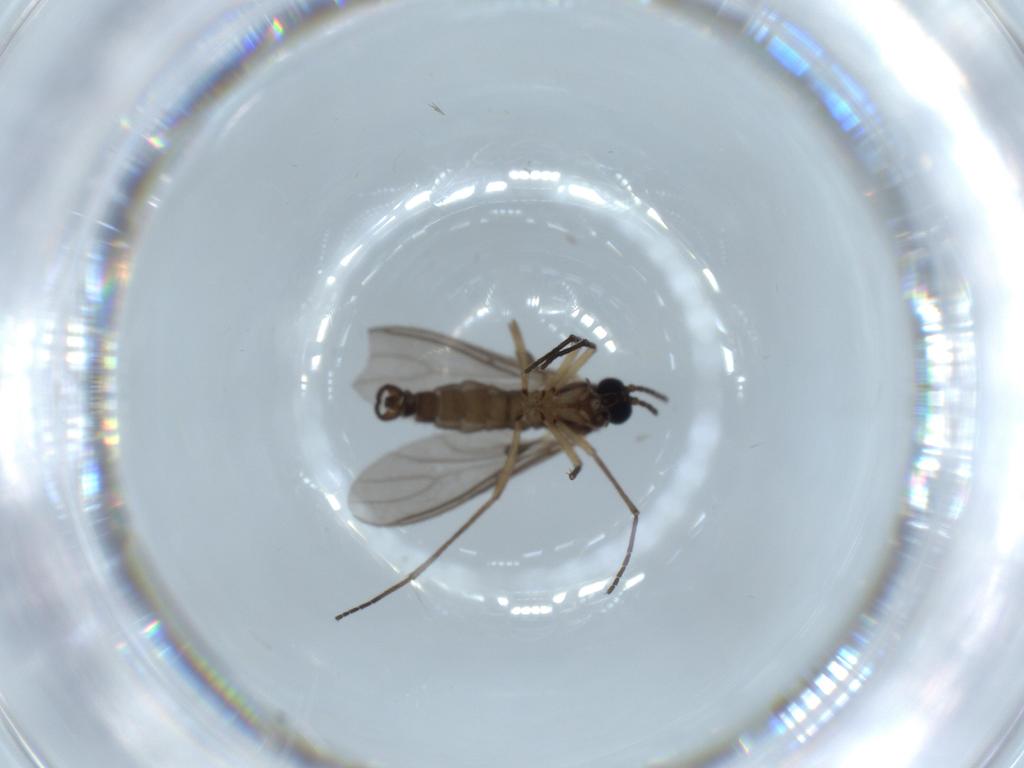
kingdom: Animalia
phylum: Arthropoda
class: Insecta
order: Diptera
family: Sciaridae
